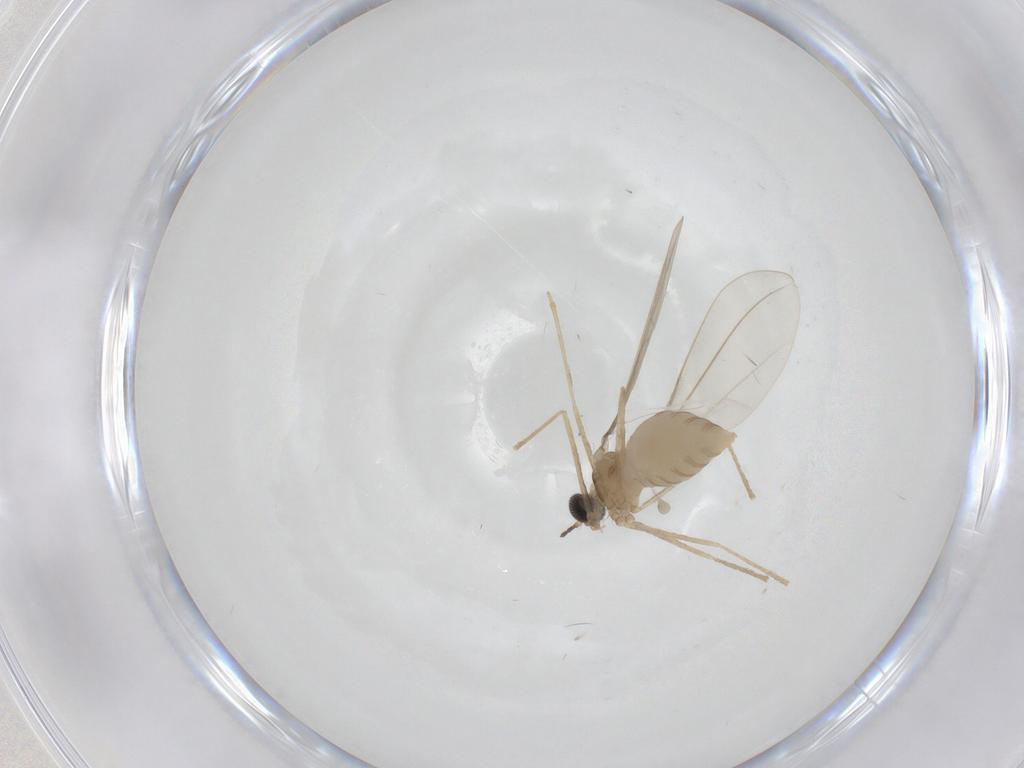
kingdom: Animalia
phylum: Arthropoda
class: Insecta
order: Diptera
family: Cecidomyiidae
